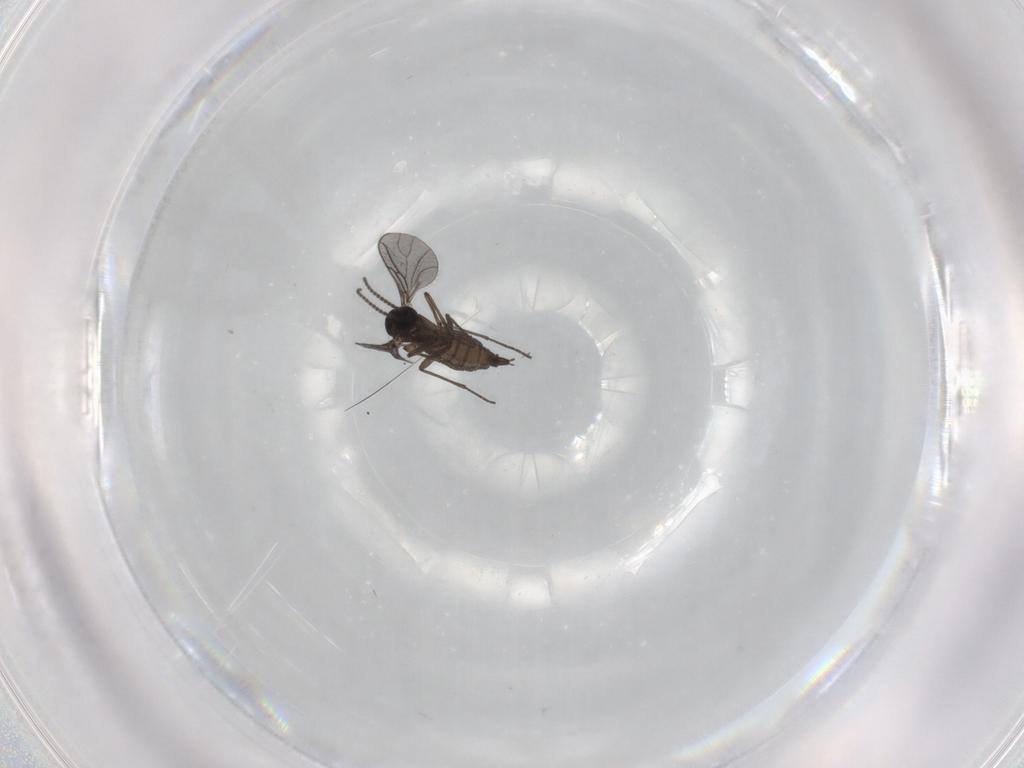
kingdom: Animalia
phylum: Arthropoda
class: Insecta
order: Diptera
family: Sciaridae
